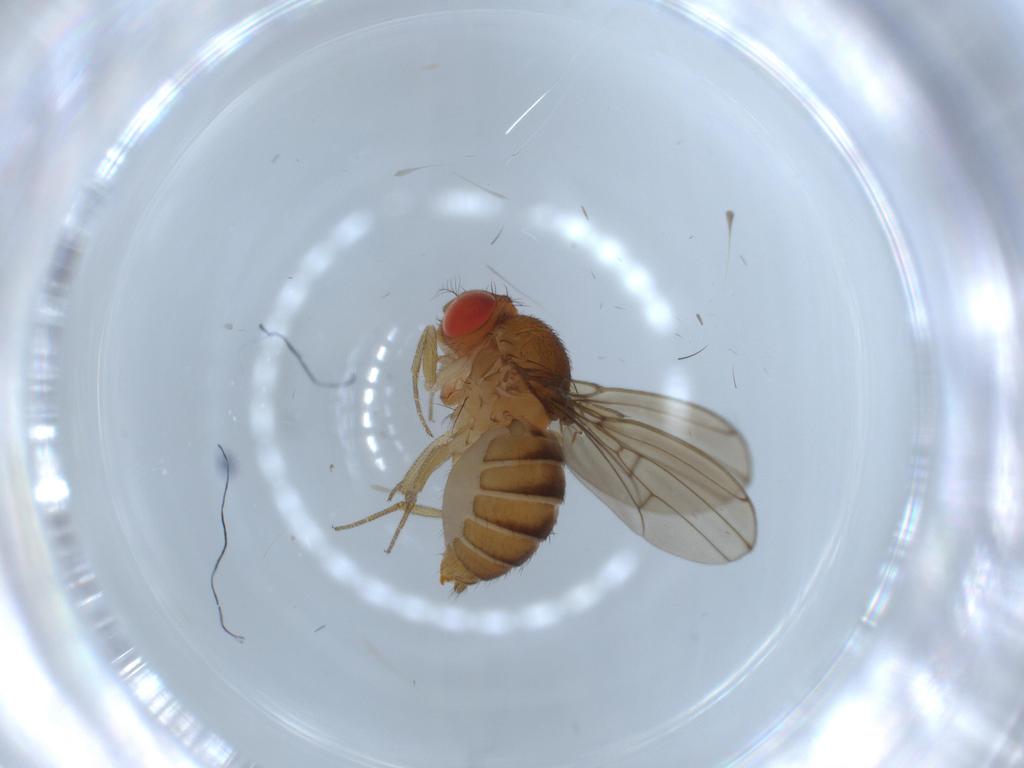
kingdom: Animalia
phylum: Arthropoda
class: Insecta
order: Diptera
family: Drosophilidae
